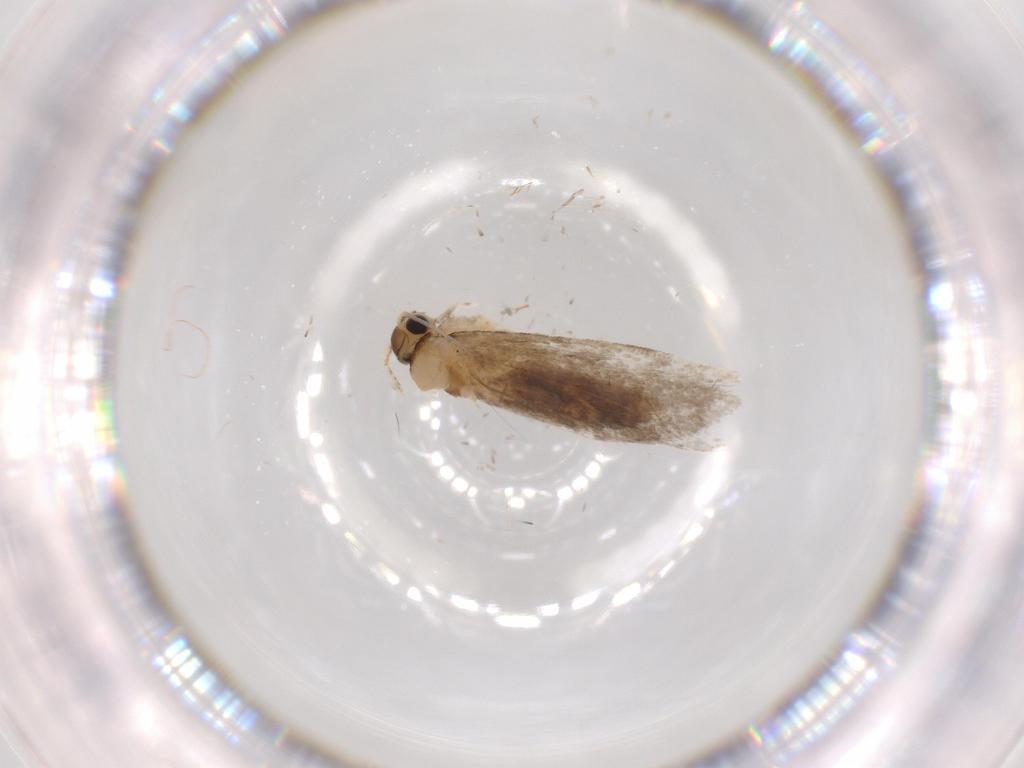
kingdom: Animalia
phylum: Arthropoda
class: Insecta
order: Lepidoptera
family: Tineidae
